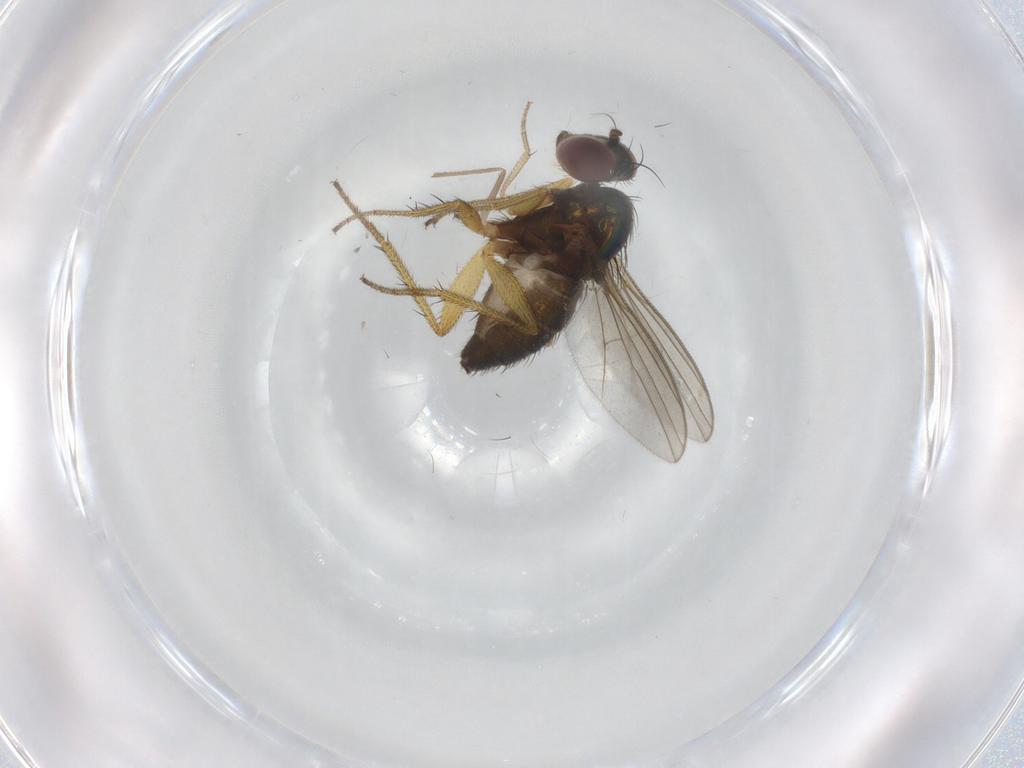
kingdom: Animalia
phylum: Arthropoda
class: Insecta
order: Diptera
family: Chironomidae
